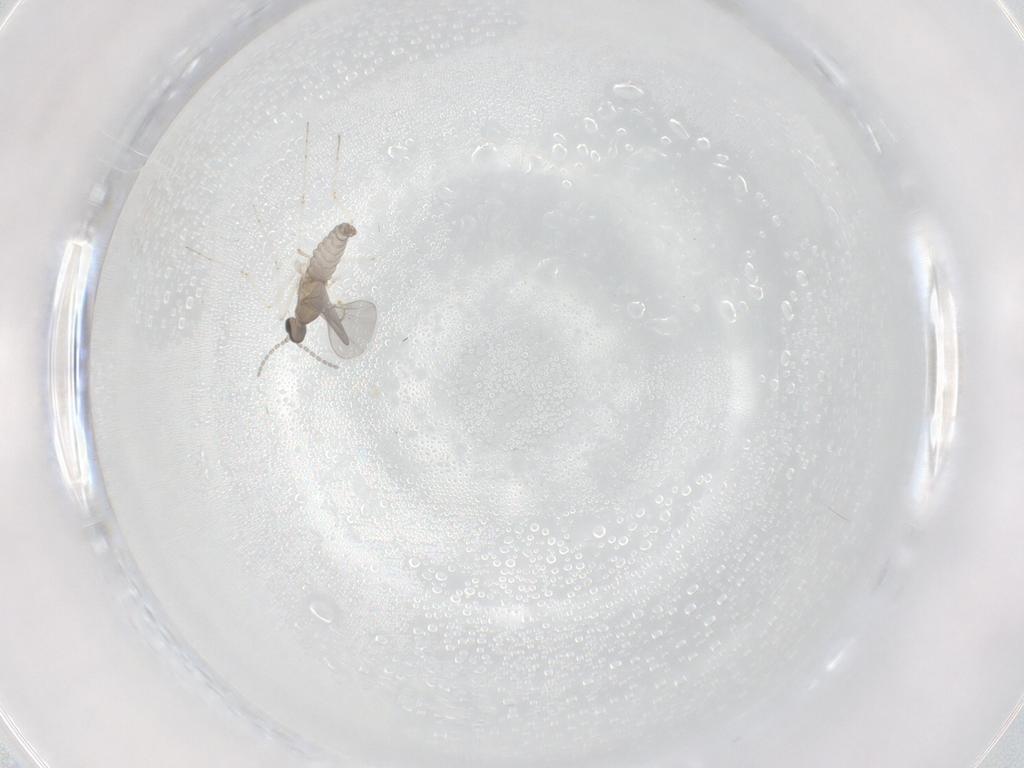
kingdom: Animalia
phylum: Arthropoda
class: Insecta
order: Diptera
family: Cecidomyiidae
